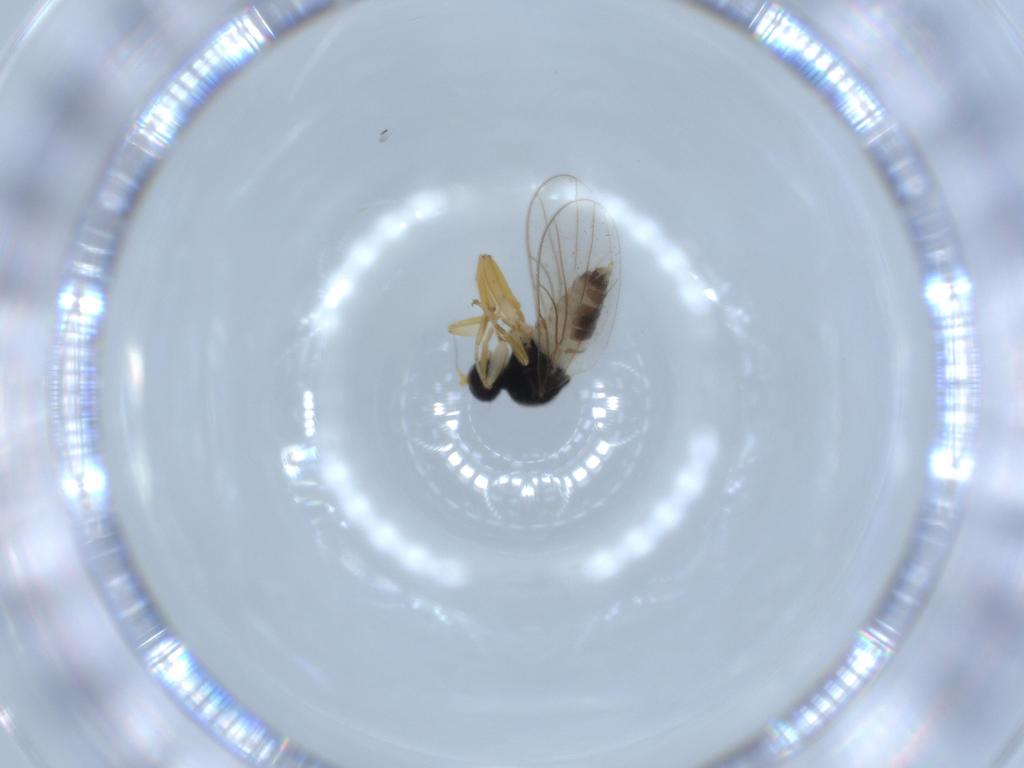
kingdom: Animalia
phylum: Arthropoda
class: Insecta
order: Diptera
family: Hybotidae
